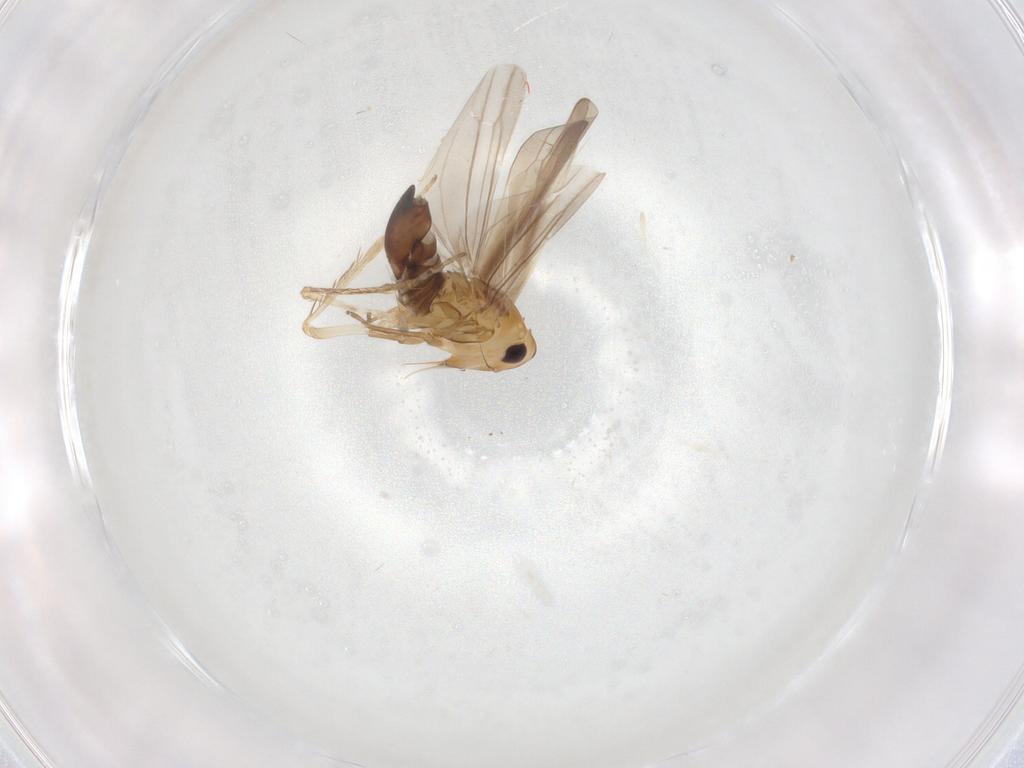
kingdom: Animalia
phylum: Arthropoda
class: Insecta
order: Hemiptera
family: Cicadellidae
